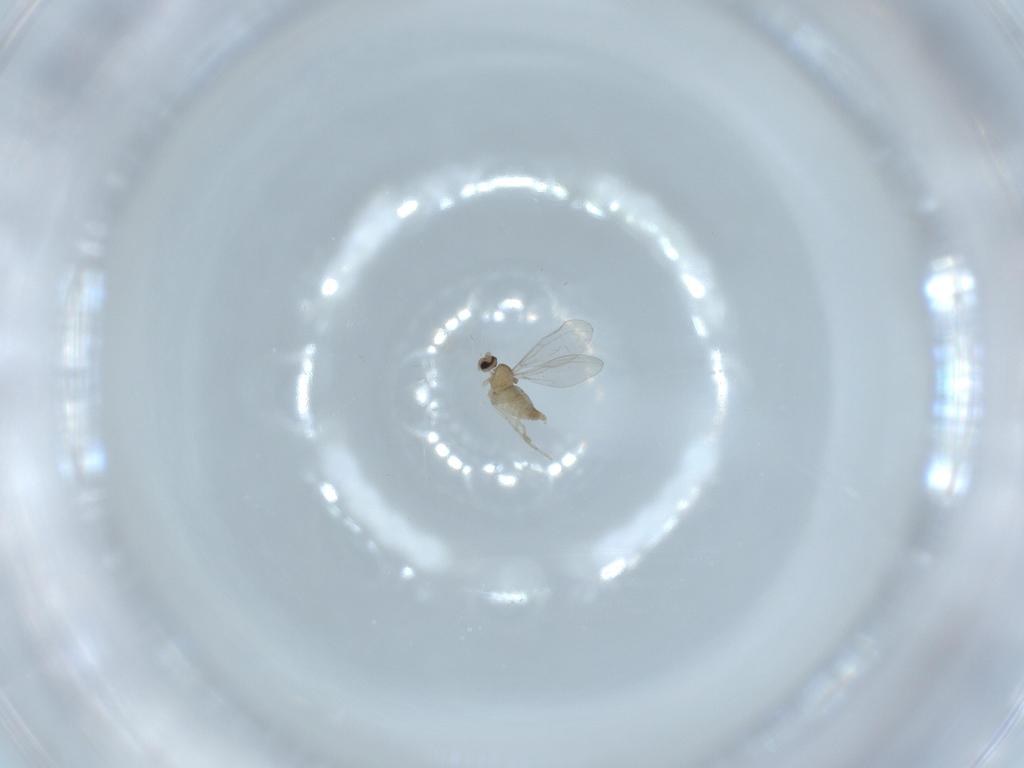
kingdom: Animalia
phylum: Arthropoda
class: Insecta
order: Diptera
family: Cecidomyiidae
